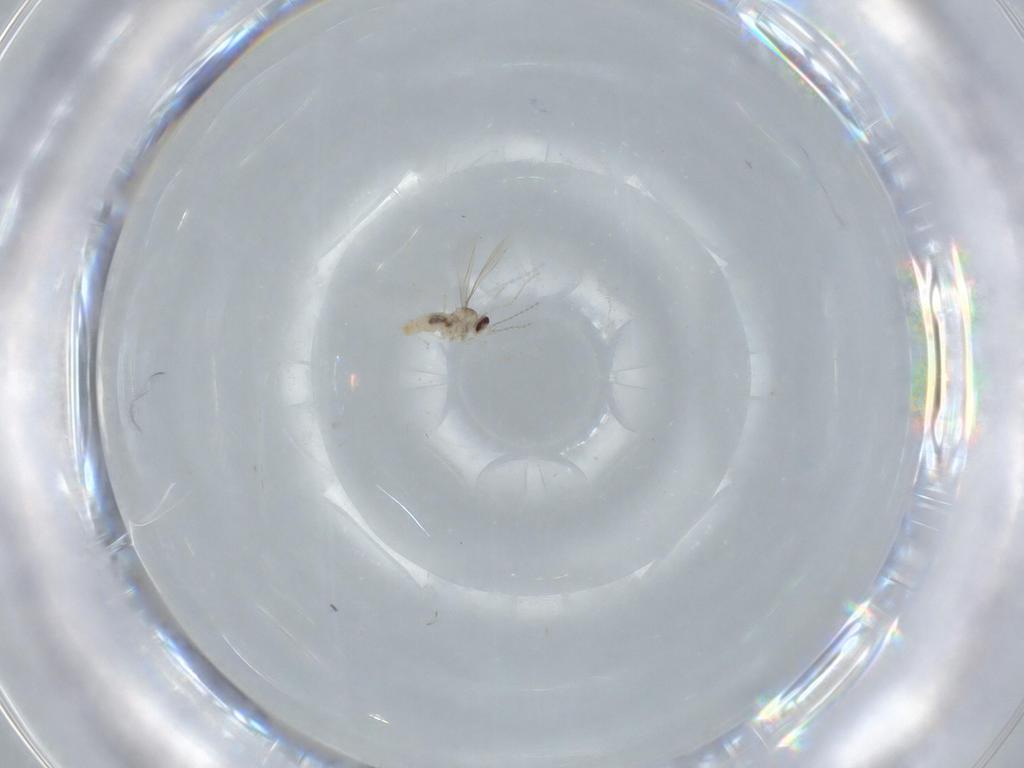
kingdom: Animalia
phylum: Arthropoda
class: Insecta
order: Diptera
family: Cecidomyiidae
